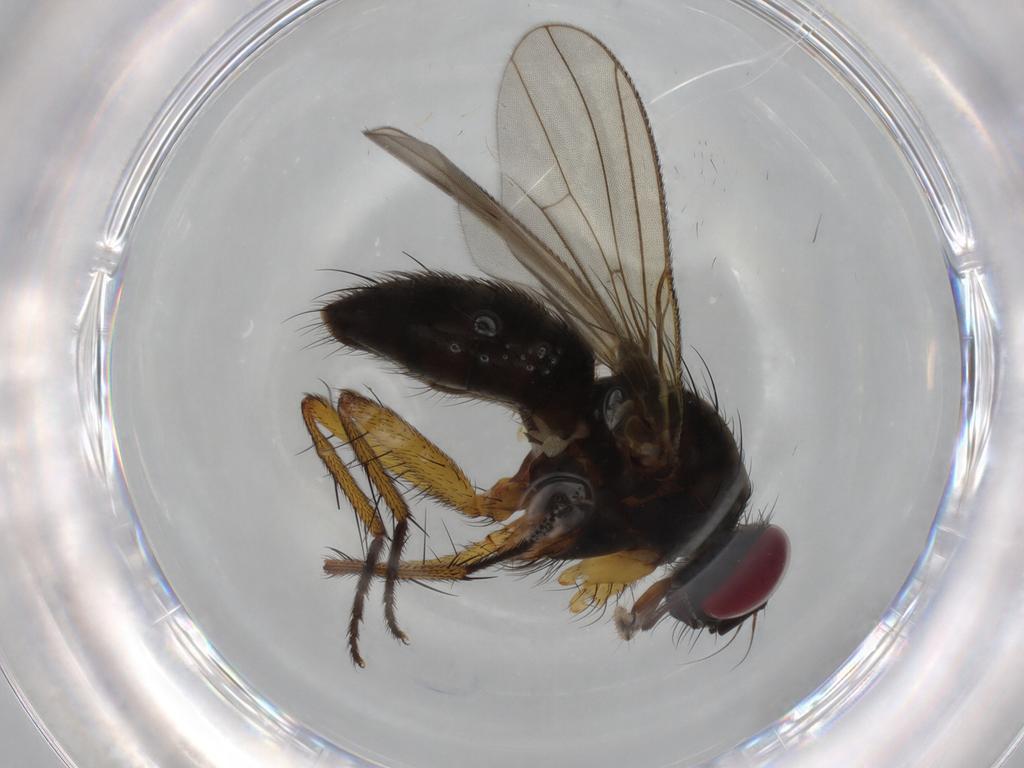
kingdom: Animalia
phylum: Arthropoda
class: Insecta
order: Diptera
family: Muscidae
